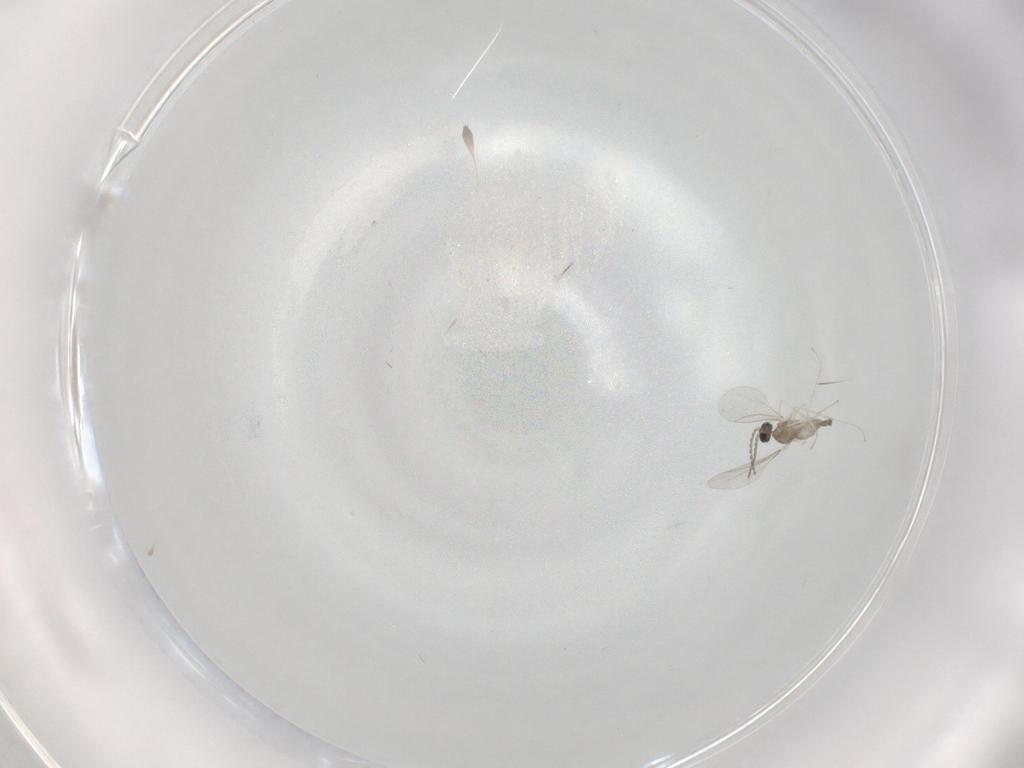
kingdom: Animalia
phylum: Arthropoda
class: Insecta
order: Diptera
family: Cecidomyiidae
